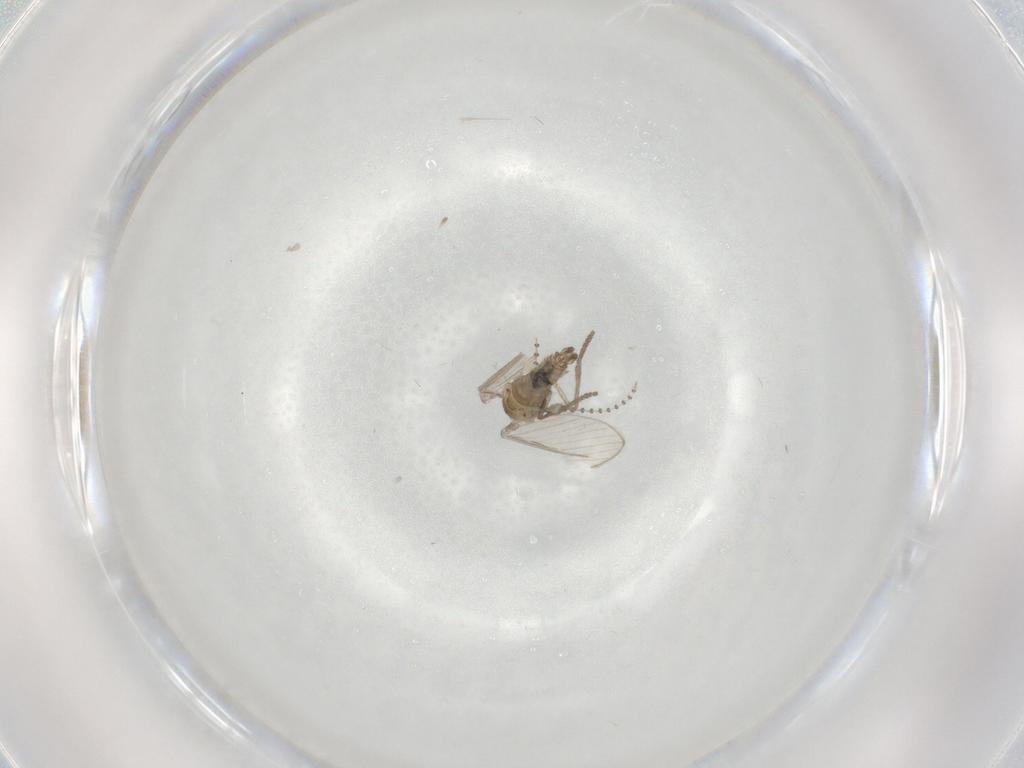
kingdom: Animalia
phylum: Arthropoda
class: Insecta
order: Diptera
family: Psychodidae
